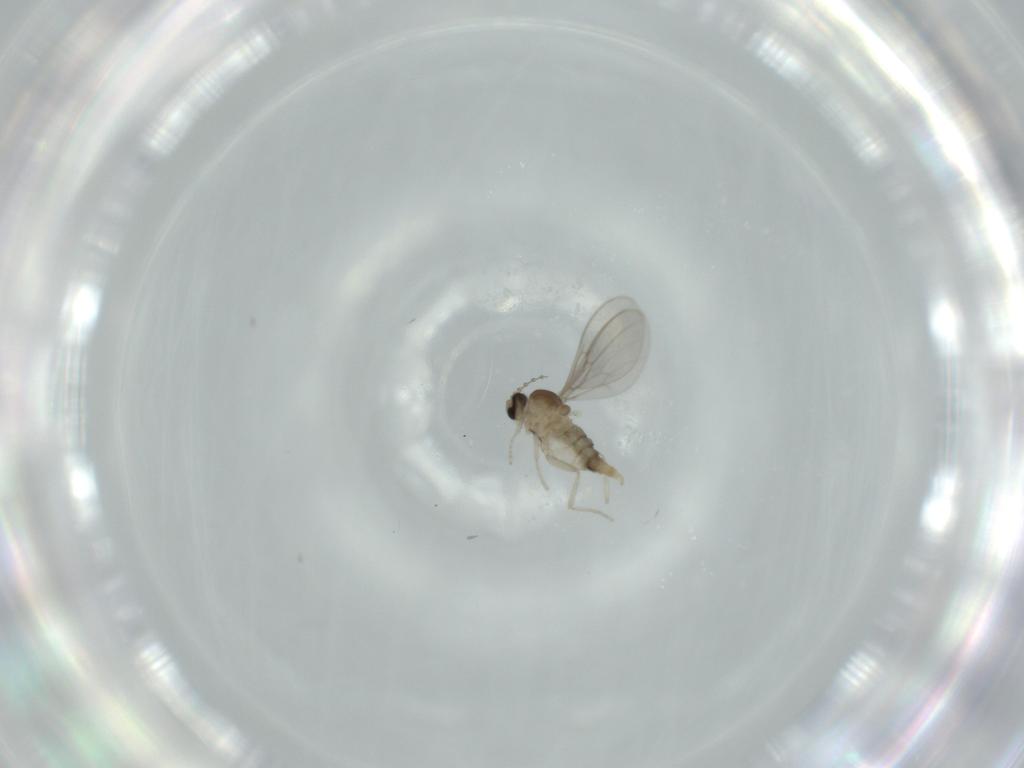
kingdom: Animalia
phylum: Arthropoda
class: Insecta
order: Diptera
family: Cecidomyiidae
